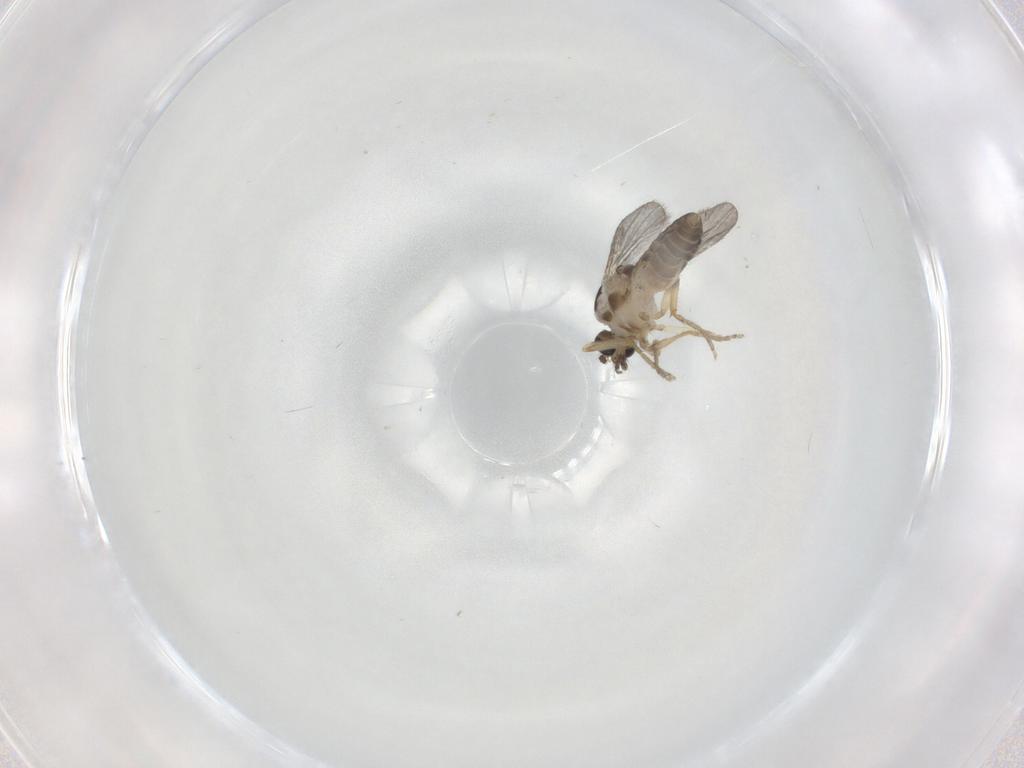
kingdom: Animalia
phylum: Arthropoda
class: Insecta
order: Diptera
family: Ceratopogonidae
